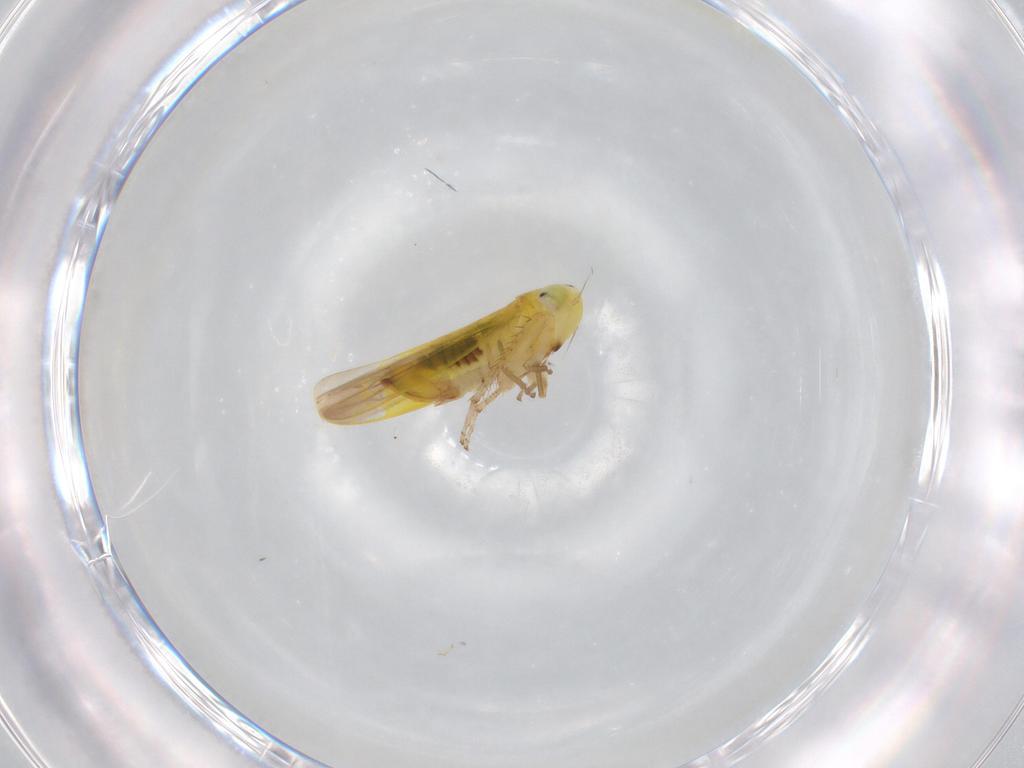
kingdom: Animalia
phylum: Arthropoda
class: Insecta
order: Hemiptera
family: Cicadellidae
